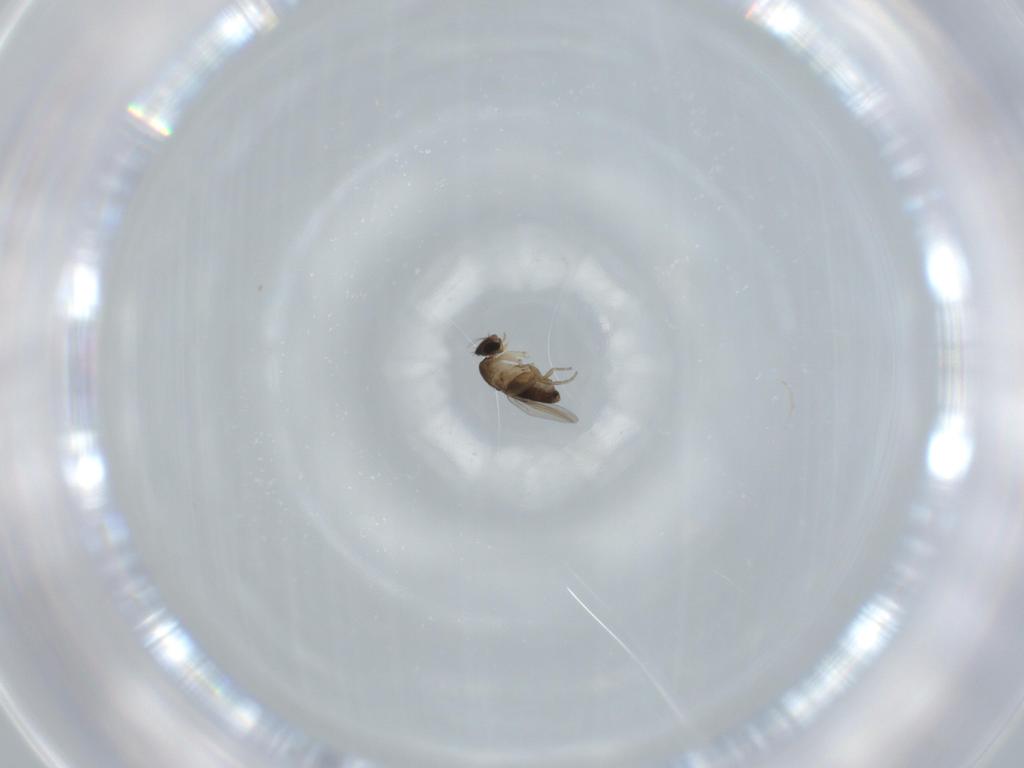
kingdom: Animalia
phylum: Arthropoda
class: Insecta
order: Diptera
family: Phoridae
